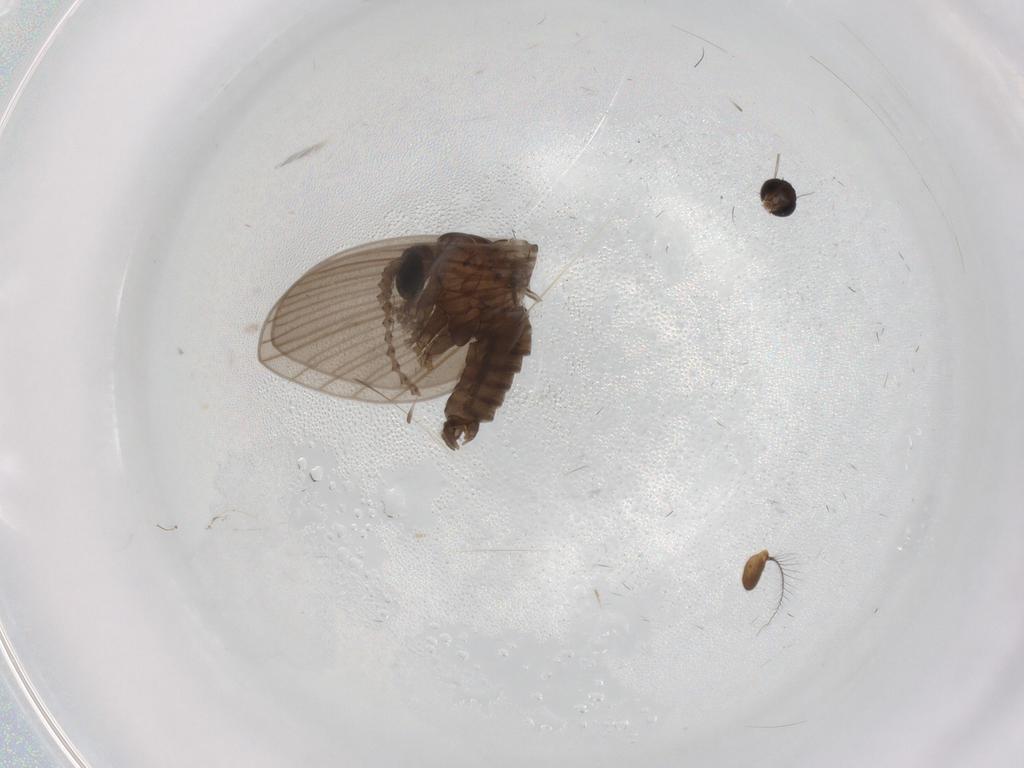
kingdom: Animalia
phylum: Arthropoda
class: Insecta
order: Diptera
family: Psychodidae
